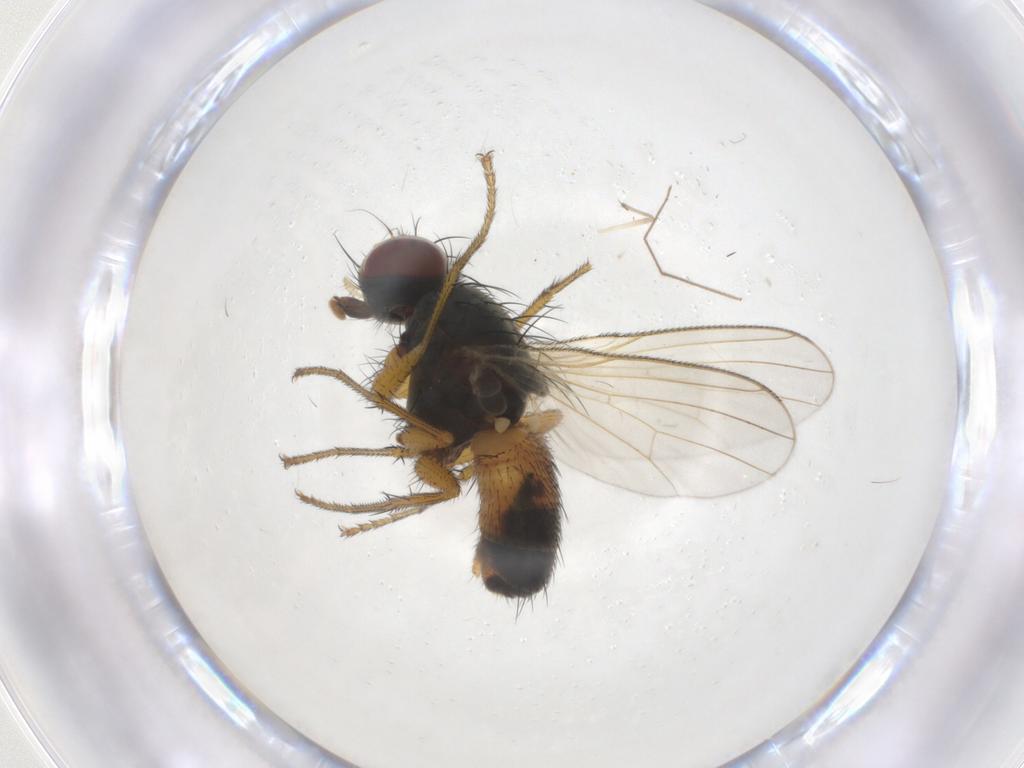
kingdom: Animalia
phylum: Arthropoda
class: Insecta
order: Diptera
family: Muscidae
